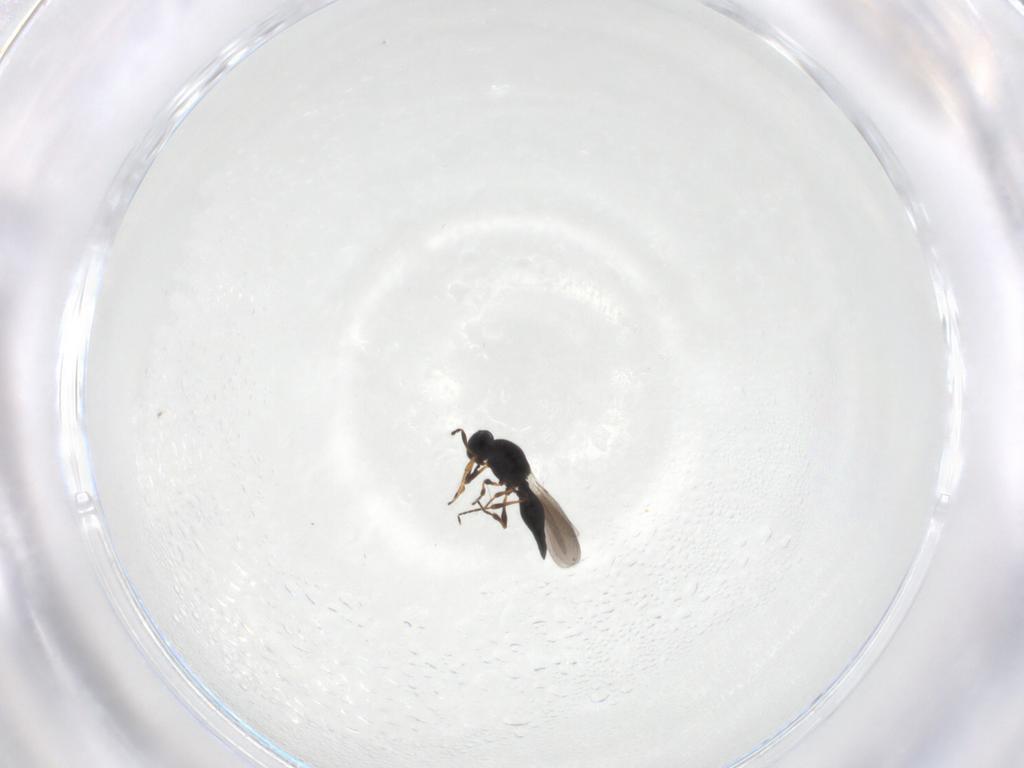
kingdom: Animalia
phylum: Arthropoda
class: Insecta
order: Hymenoptera
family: Platygastridae
